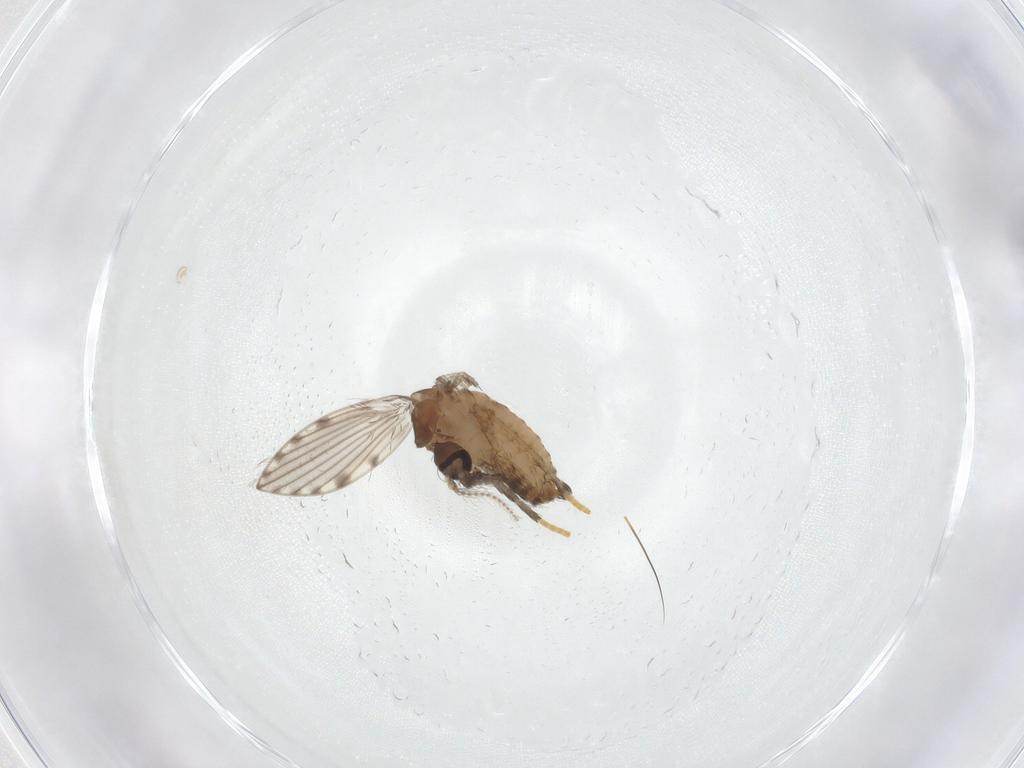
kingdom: Animalia
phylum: Arthropoda
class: Insecta
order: Diptera
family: Psychodidae
